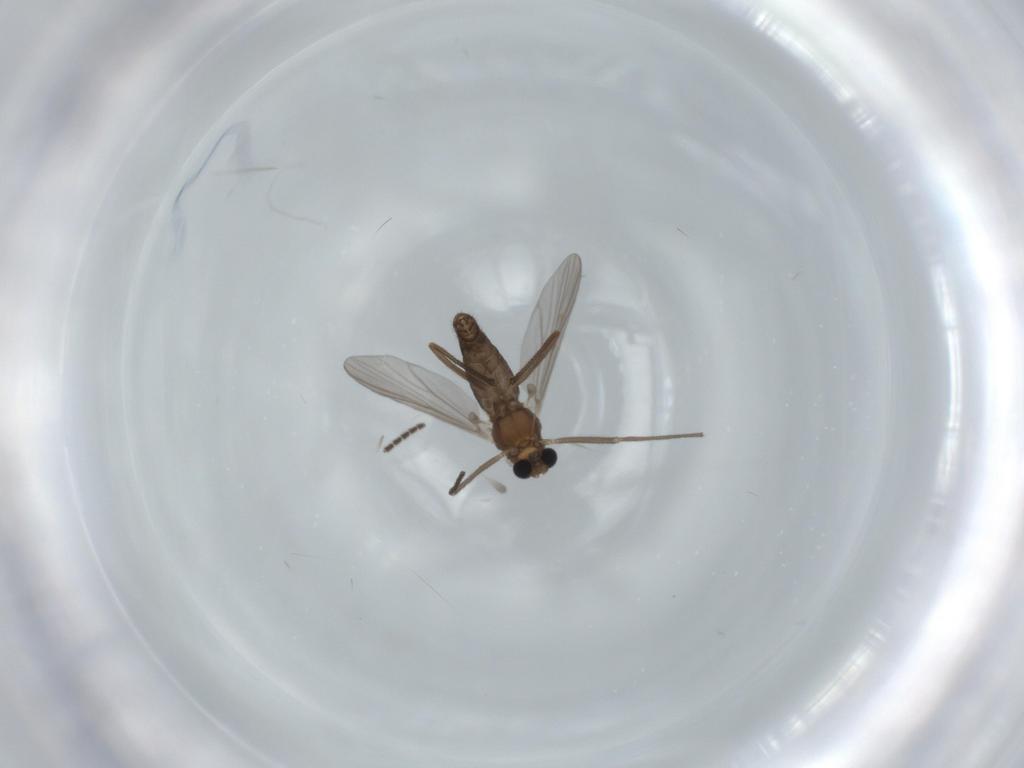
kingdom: Animalia
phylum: Arthropoda
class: Insecta
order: Diptera
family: Chironomidae
